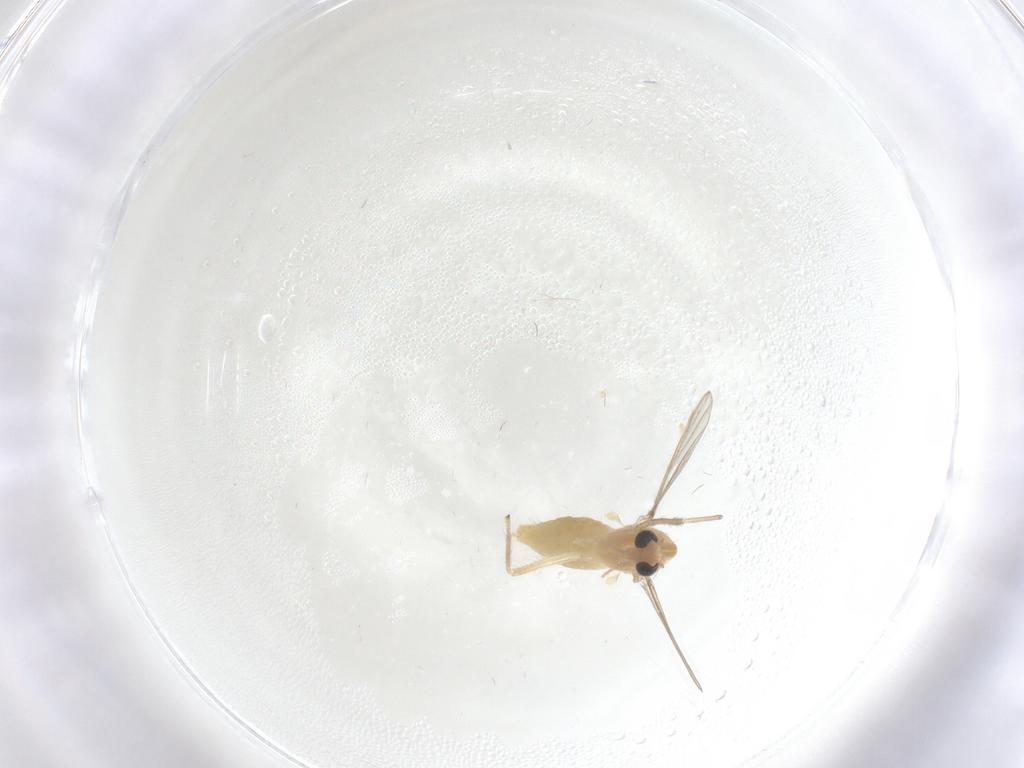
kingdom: Animalia
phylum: Arthropoda
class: Insecta
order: Diptera
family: Chironomidae
